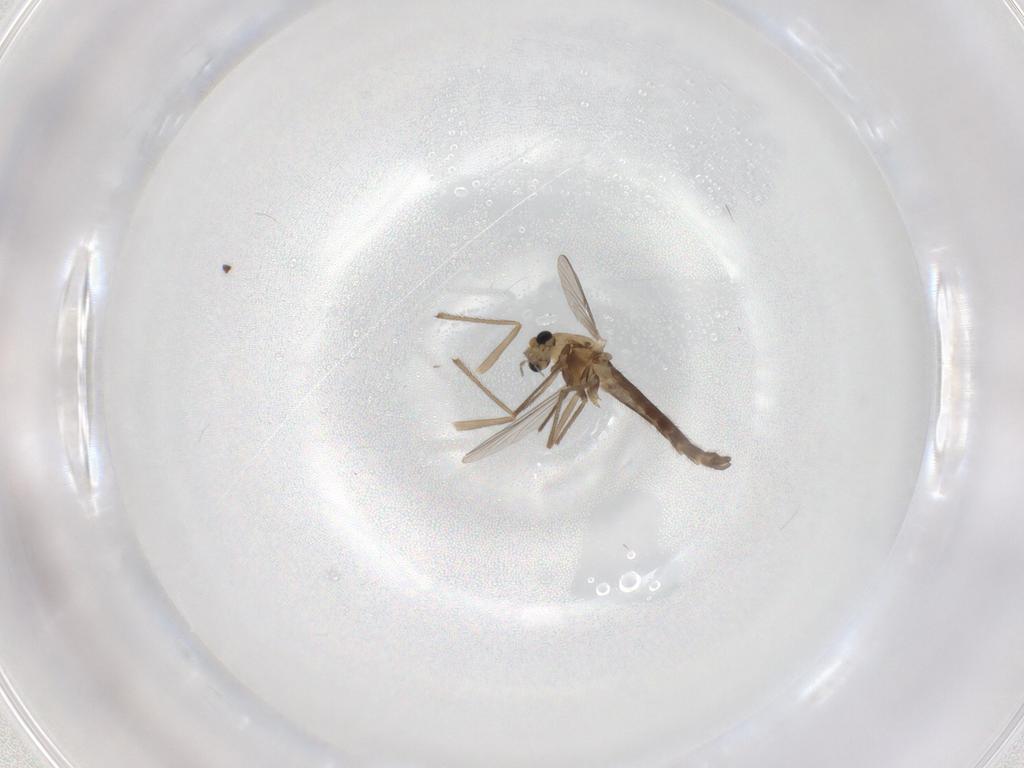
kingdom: Animalia
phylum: Arthropoda
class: Insecta
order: Diptera
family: Chironomidae
